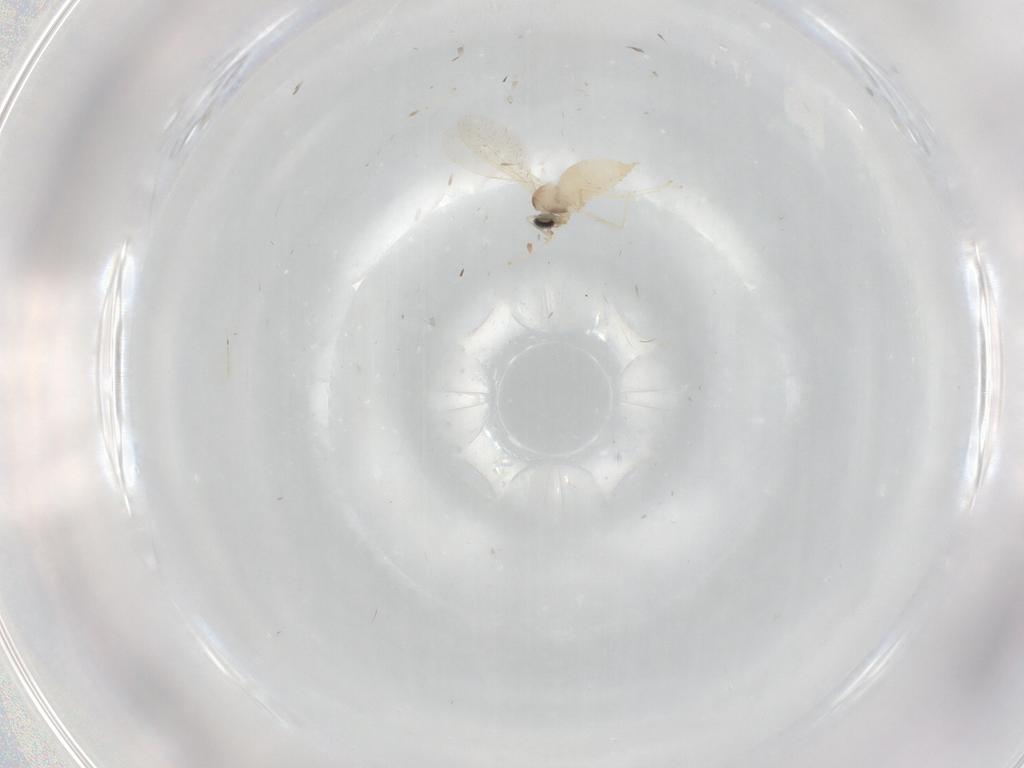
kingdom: Animalia
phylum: Arthropoda
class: Insecta
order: Diptera
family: Cecidomyiidae
